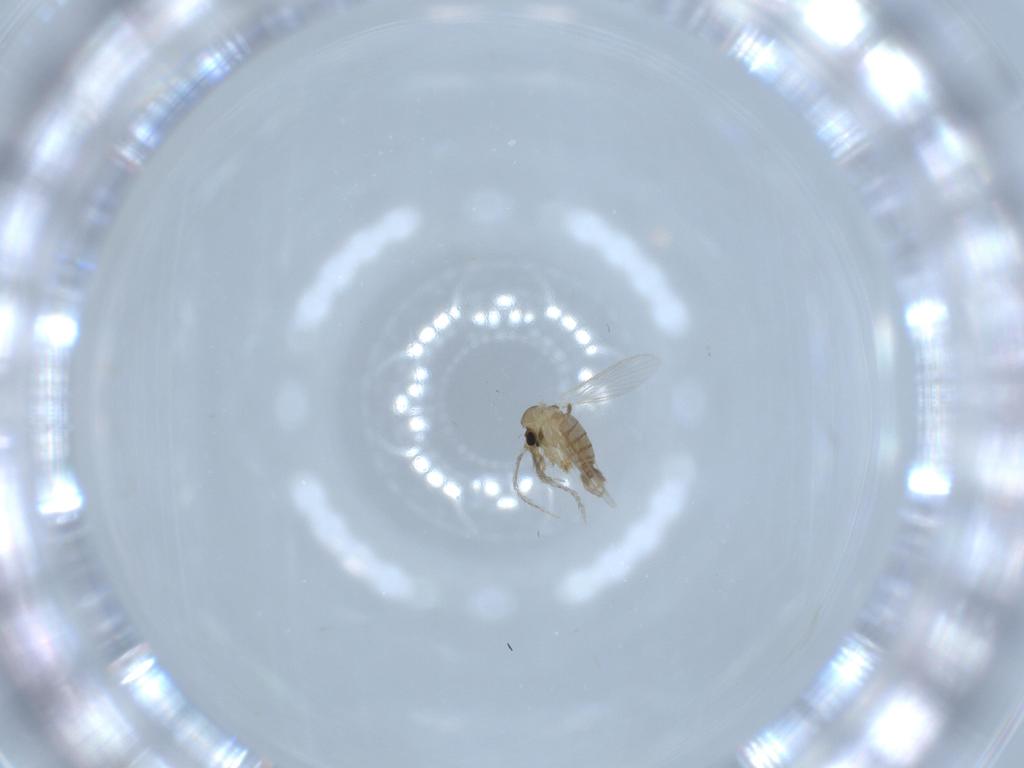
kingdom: Animalia
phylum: Arthropoda
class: Insecta
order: Diptera
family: Psychodidae
